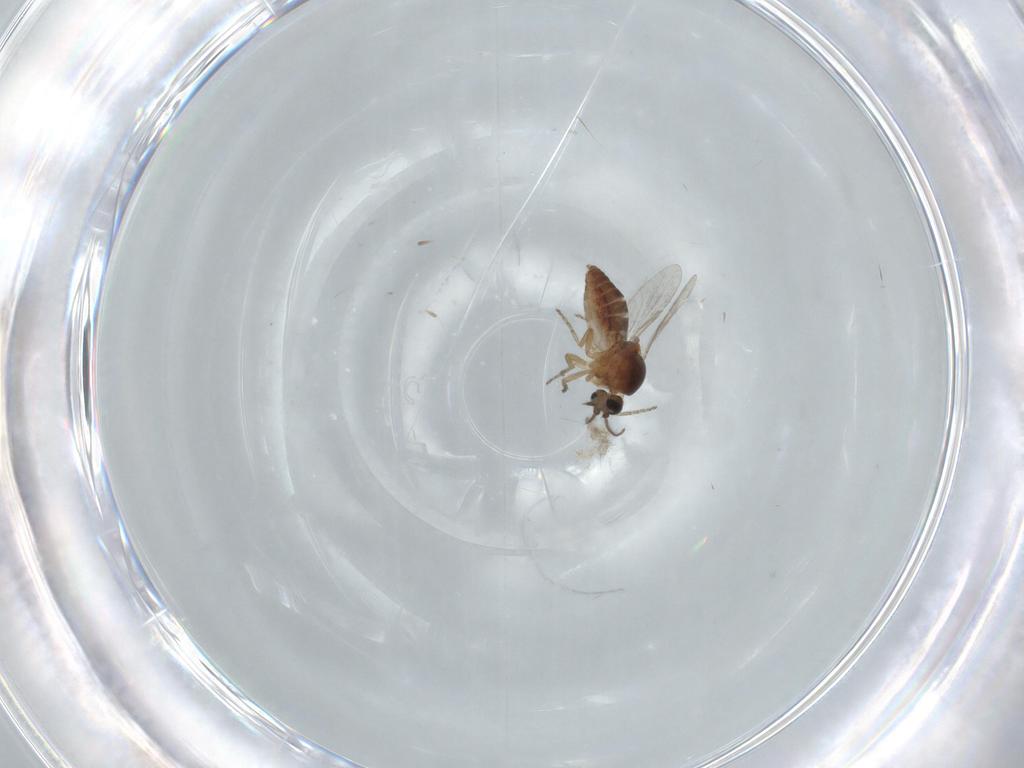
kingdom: Animalia
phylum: Arthropoda
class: Insecta
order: Diptera
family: Ceratopogonidae
